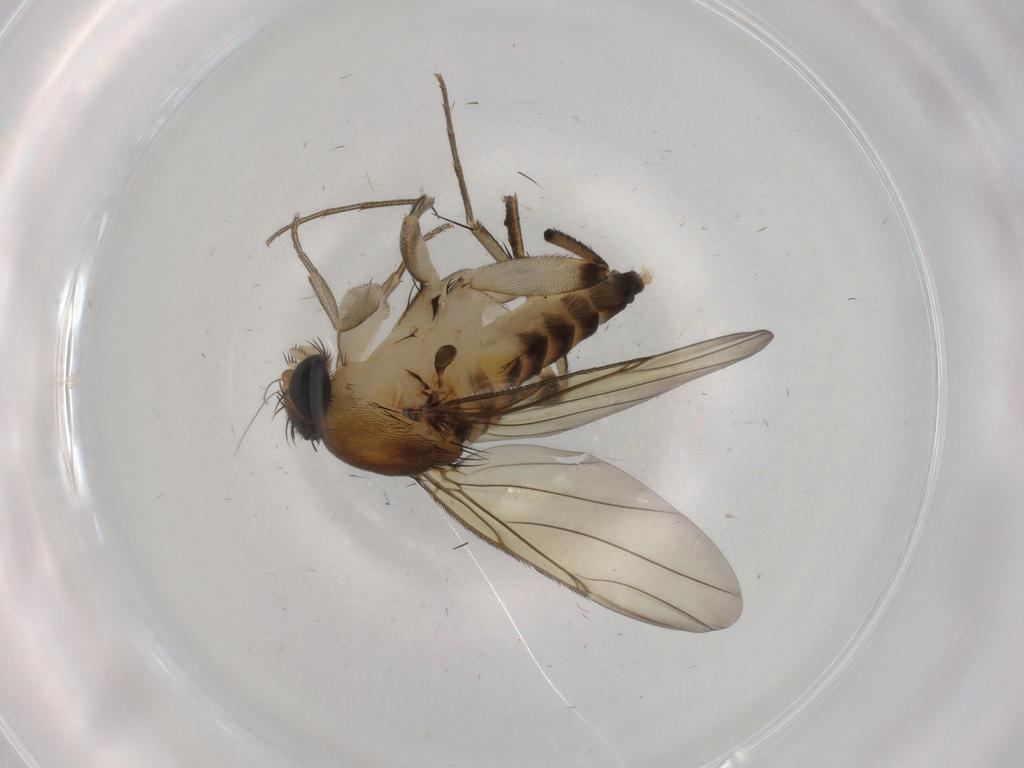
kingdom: Animalia
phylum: Arthropoda
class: Insecta
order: Diptera
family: Phoridae
